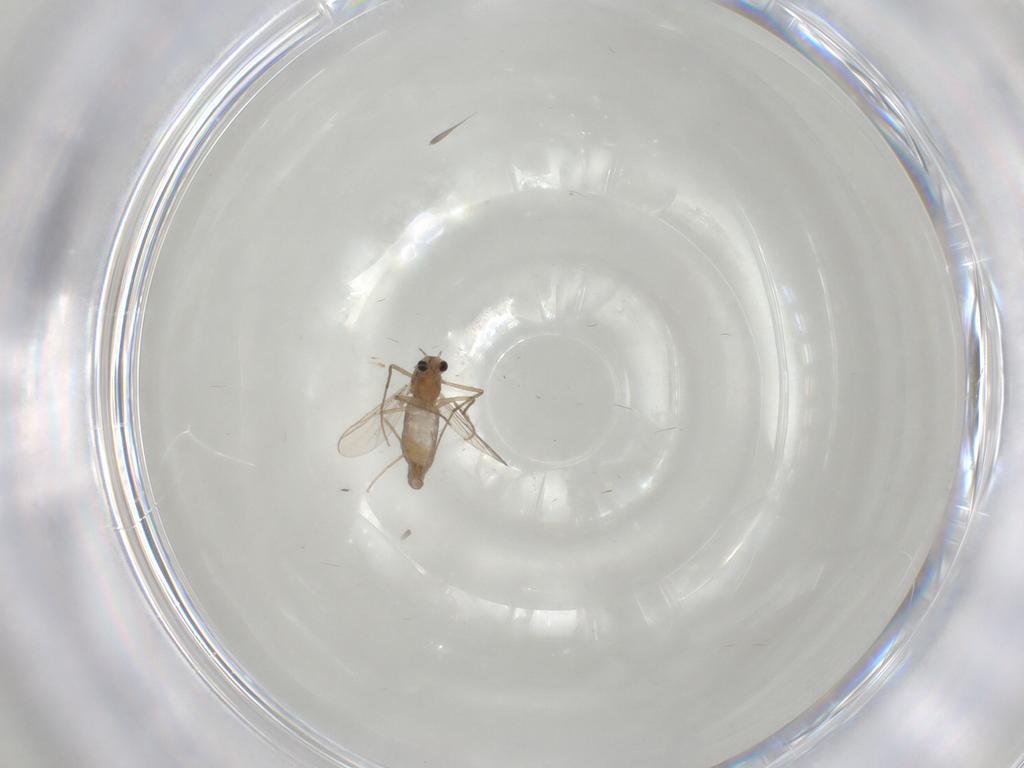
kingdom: Animalia
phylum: Arthropoda
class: Insecta
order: Diptera
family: Chironomidae
